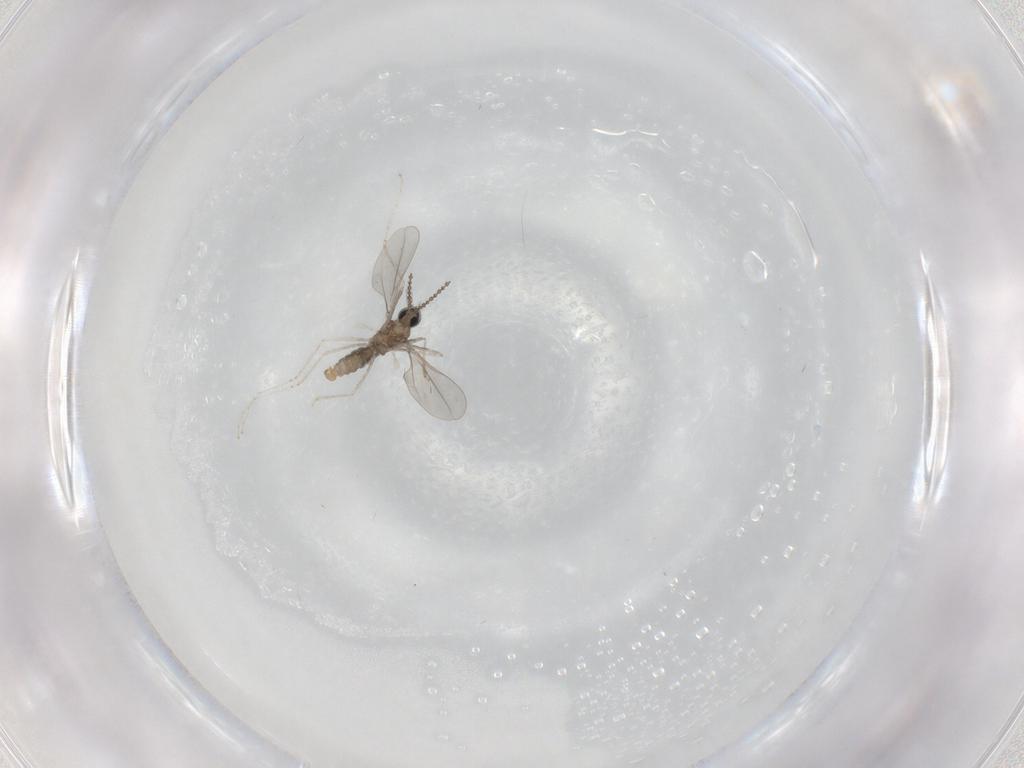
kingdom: Animalia
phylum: Arthropoda
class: Insecta
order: Diptera
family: Cecidomyiidae
